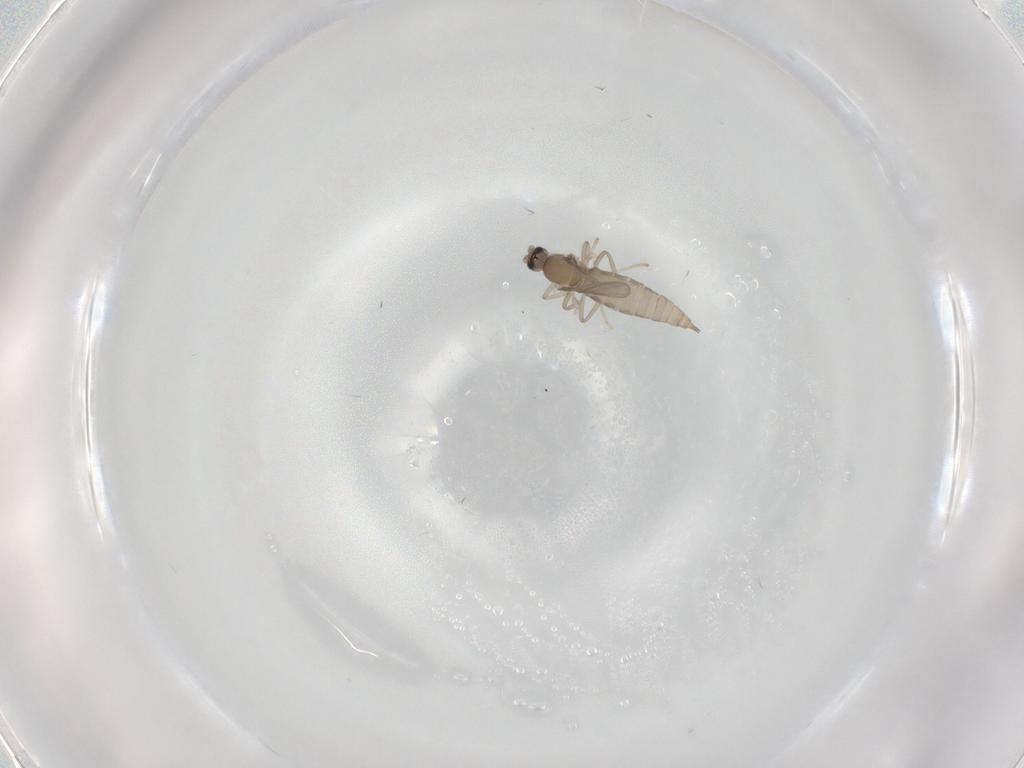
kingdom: Animalia
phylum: Arthropoda
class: Insecta
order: Diptera
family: Cecidomyiidae
